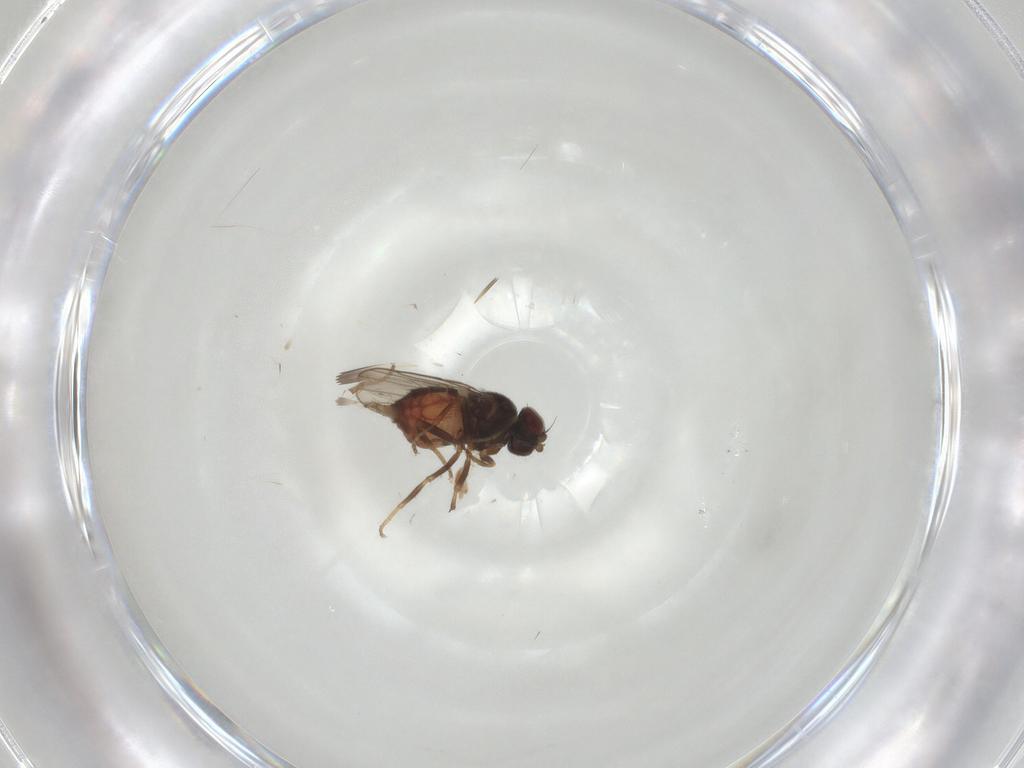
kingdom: Animalia
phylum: Arthropoda
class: Insecta
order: Diptera
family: Chloropidae
